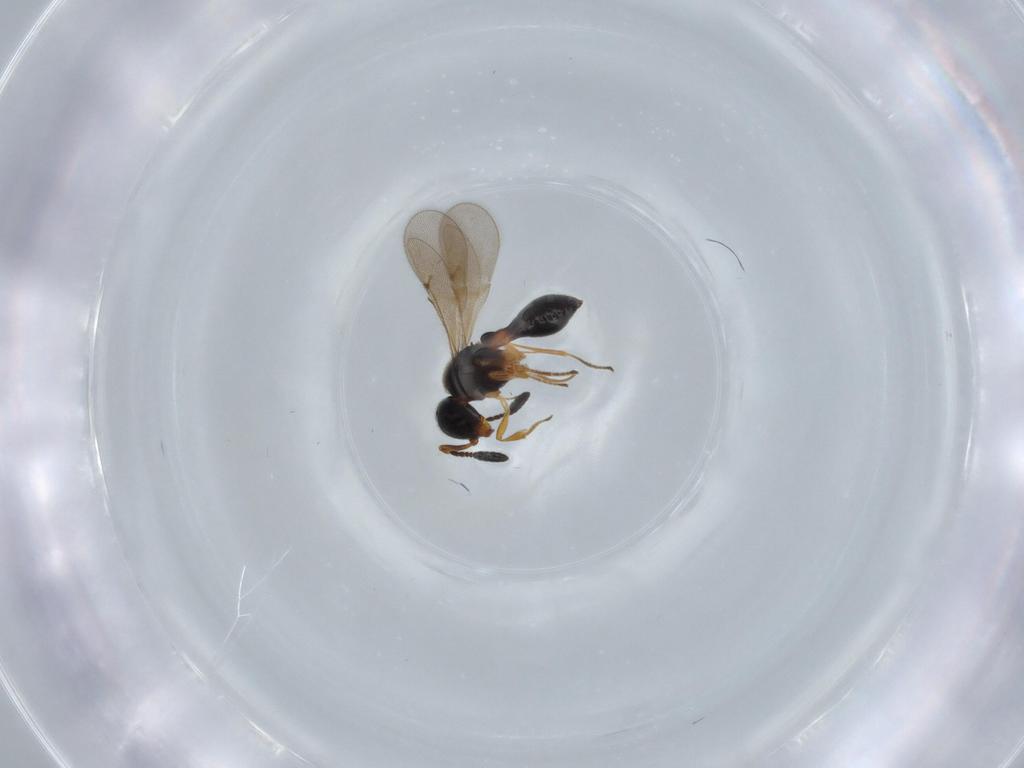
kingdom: Animalia
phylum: Arthropoda
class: Insecta
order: Hymenoptera
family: Scelionidae
